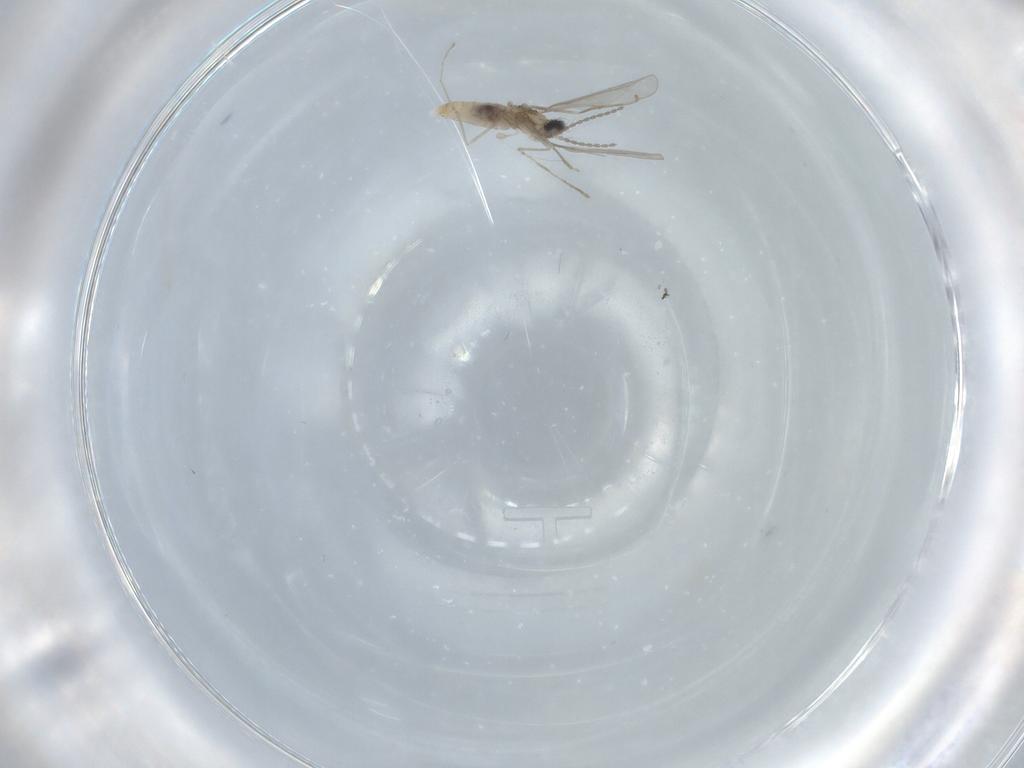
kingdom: Animalia
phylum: Arthropoda
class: Insecta
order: Diptera
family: Cecidomyiidae
